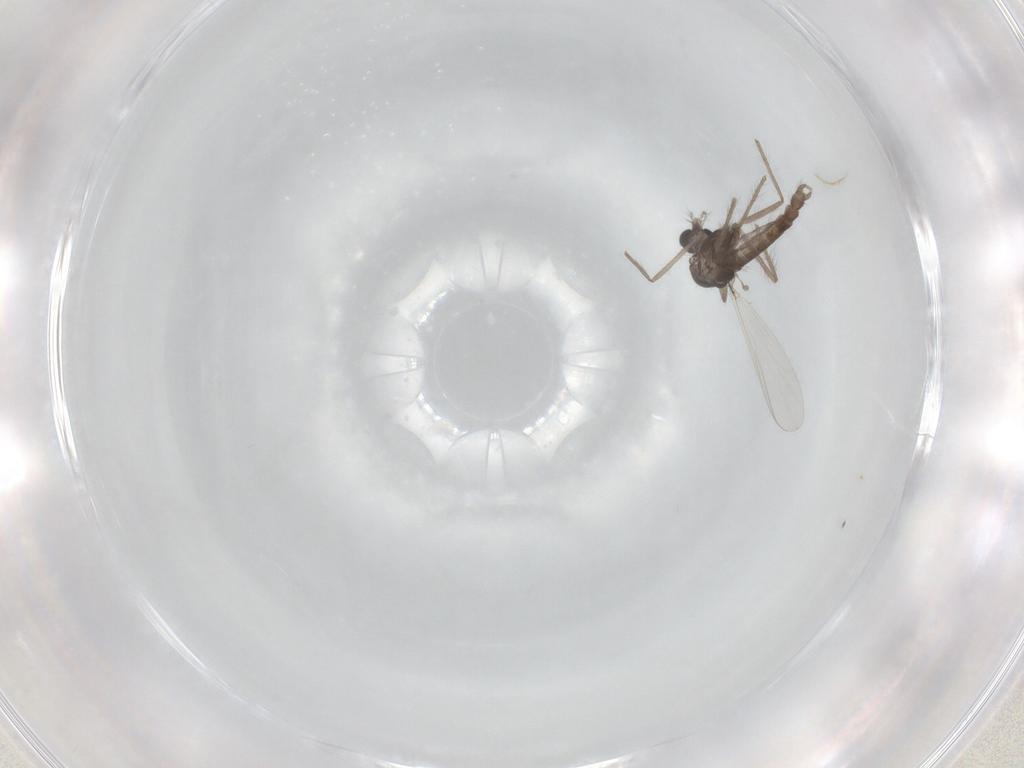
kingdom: Animalia
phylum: Arthropoda
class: Insecta
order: Diptera
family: Chironomidae
